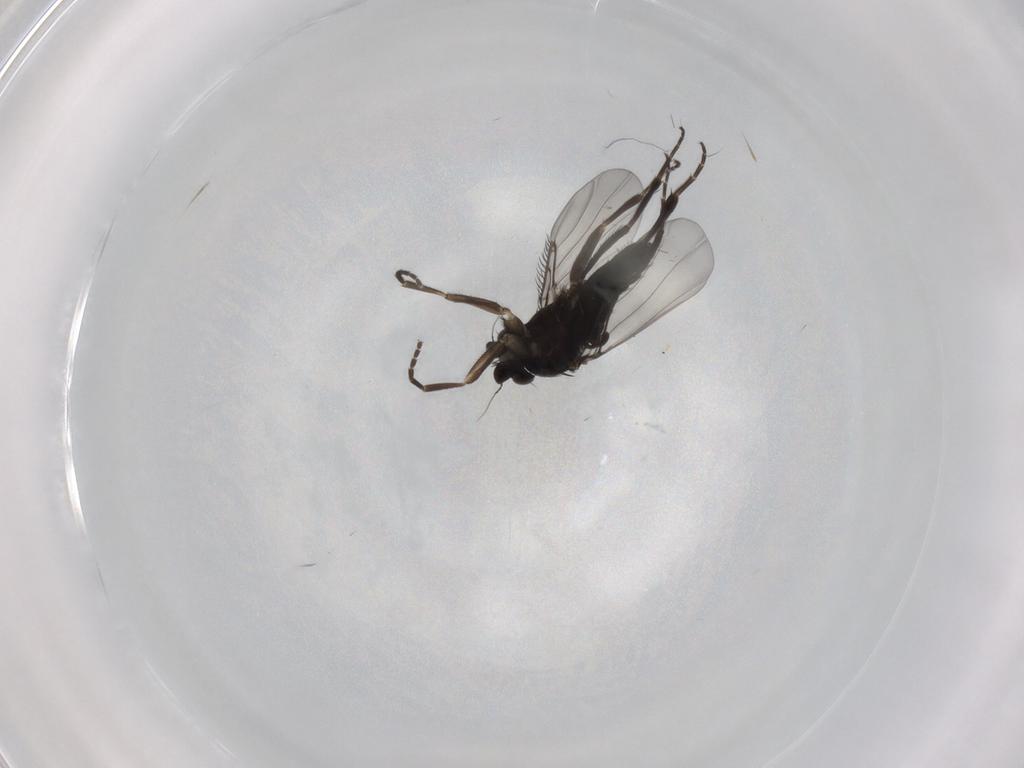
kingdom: Animalia
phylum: Arthropoda
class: Insecta
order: Diptera
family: Phoridae
